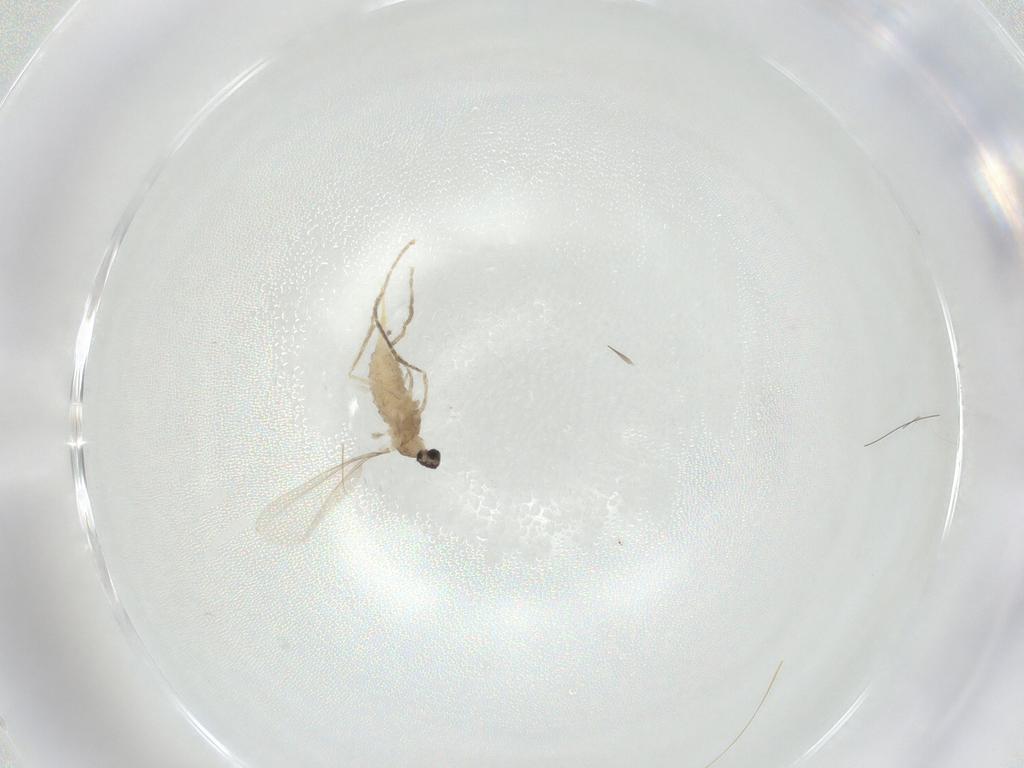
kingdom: Animalia
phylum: Arthropoda
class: Insecta
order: Diptera
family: Cecidomyiidae
